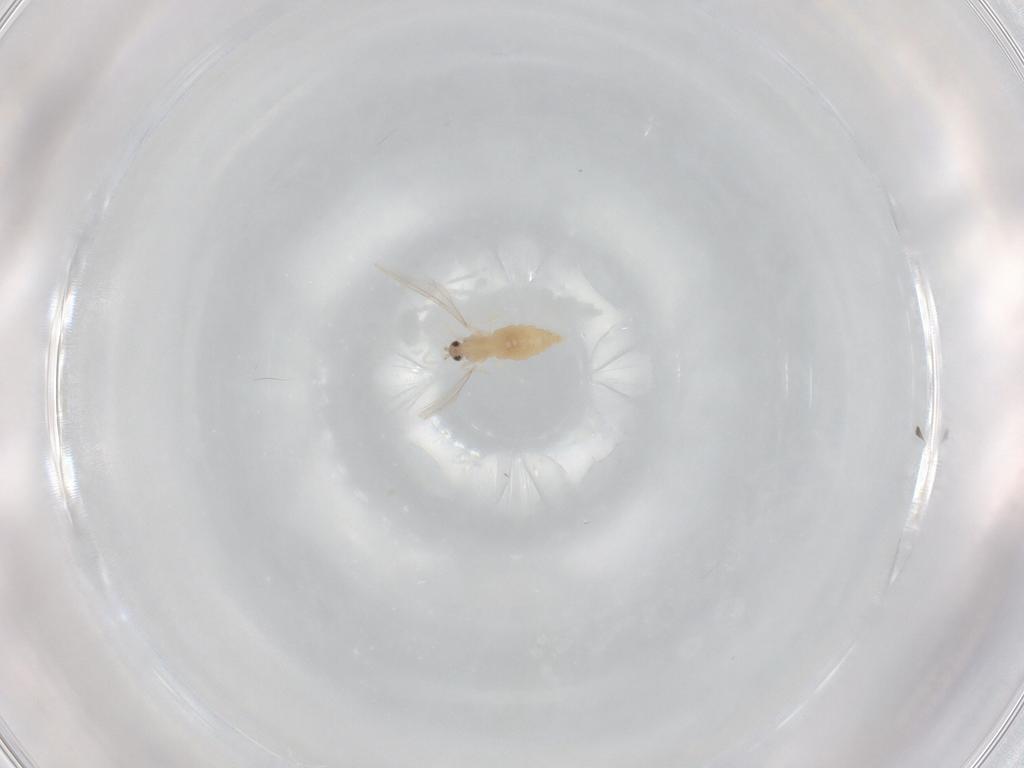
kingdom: Animalia
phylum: Arthropoda
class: Insecta
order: Diptera
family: Cecidomyiidae
